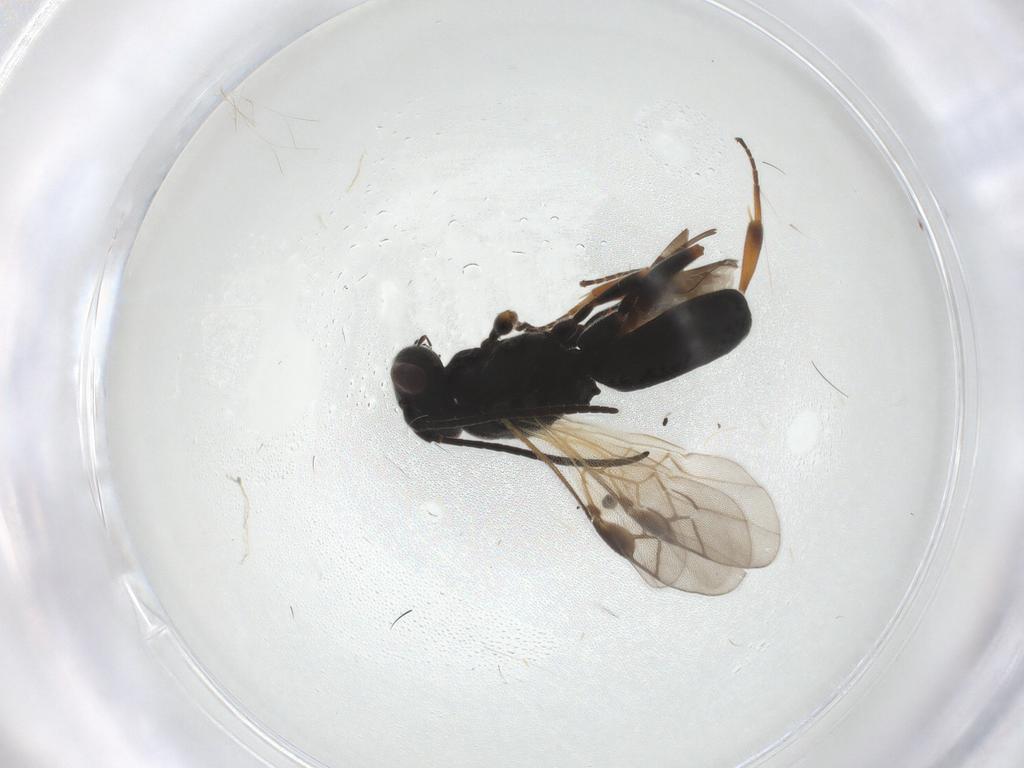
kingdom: Animalia
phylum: Arthropoda
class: Insecta
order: Hymenoptera
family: Braconidae
